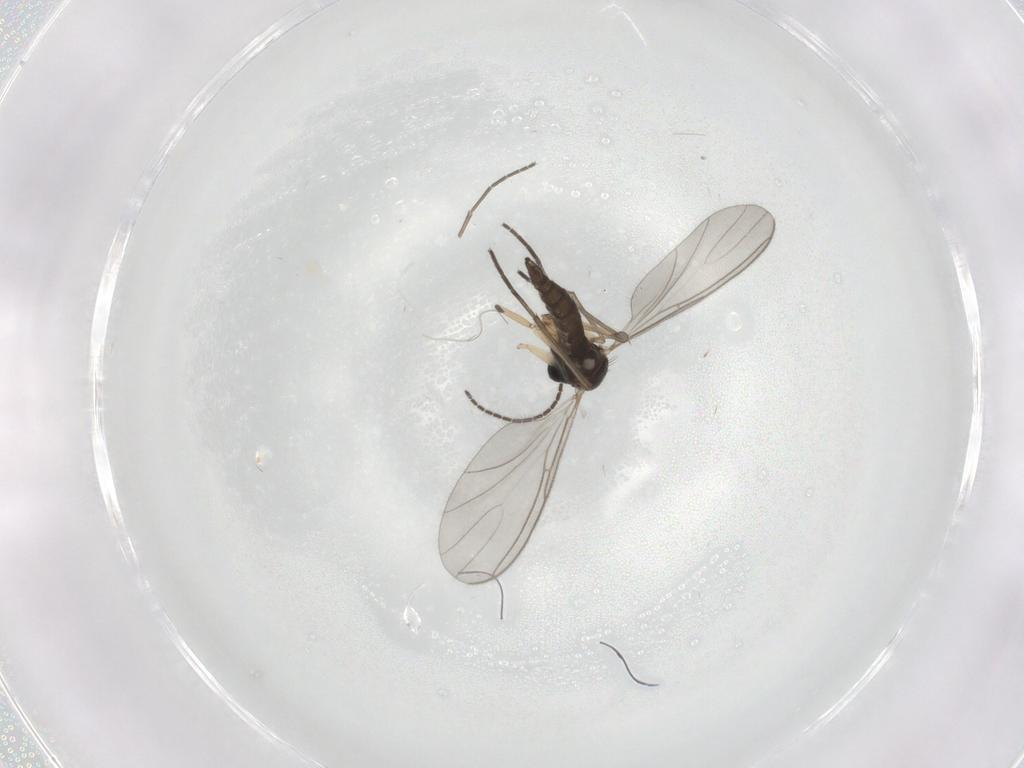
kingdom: Animalia
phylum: Arthropoda
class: Insecta
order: Diptera
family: Sciaridae
